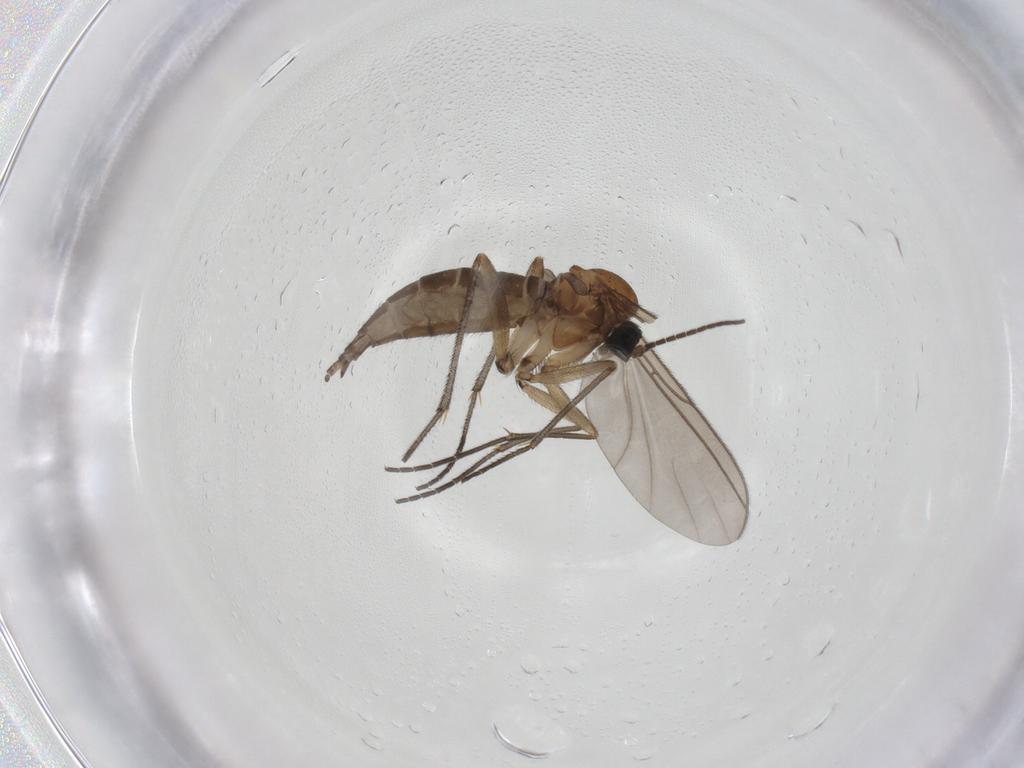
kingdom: Animalia
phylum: Arthropoda
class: Insecta
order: Diptera
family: Sciaridae
